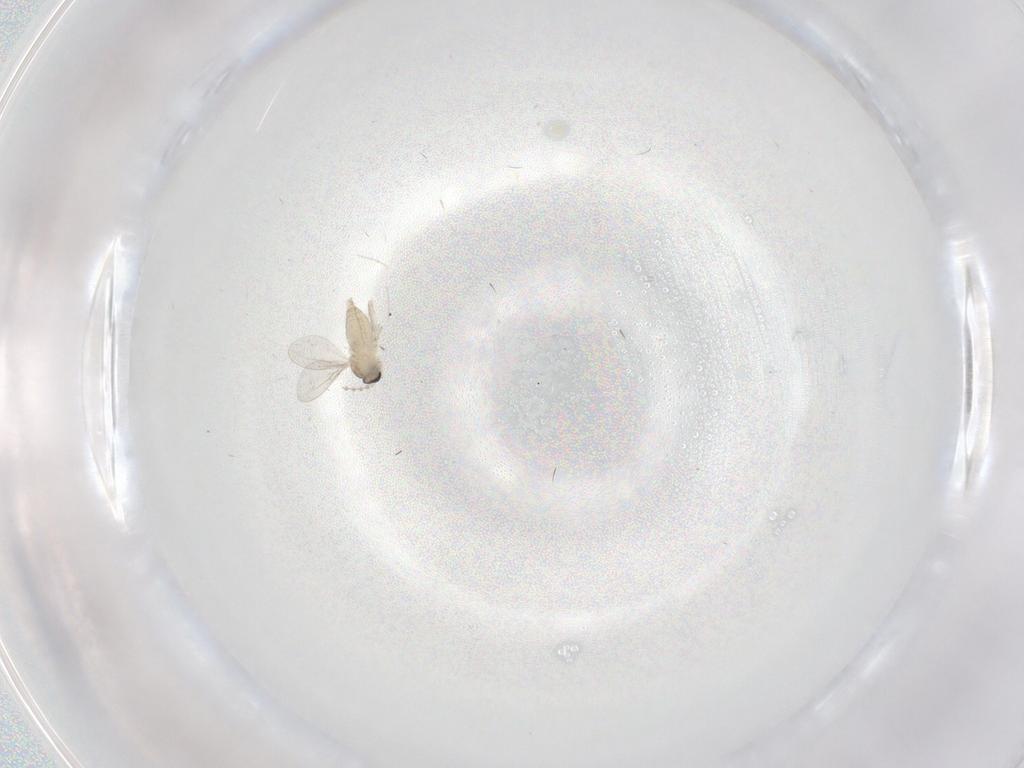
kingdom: Animalia
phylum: Arthropoda
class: Insecta
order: Diptera
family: Cecidomyiidae
